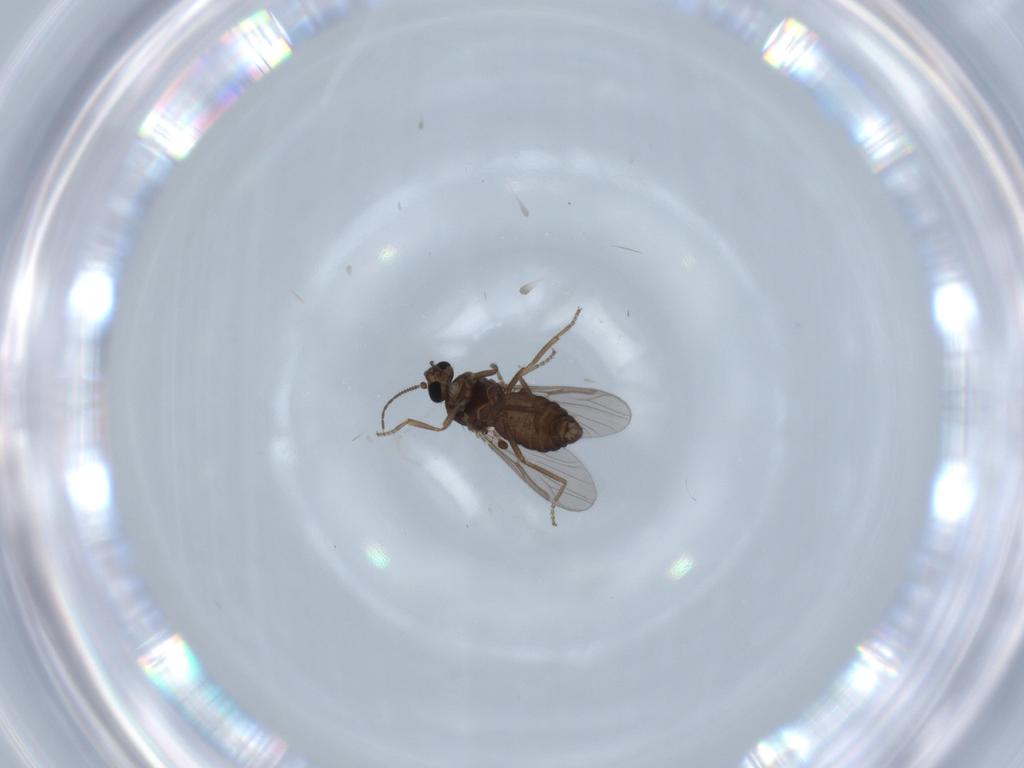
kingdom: Animalia
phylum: Arthropoda
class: Insecta
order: Diptera
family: Ceratopogonidae
